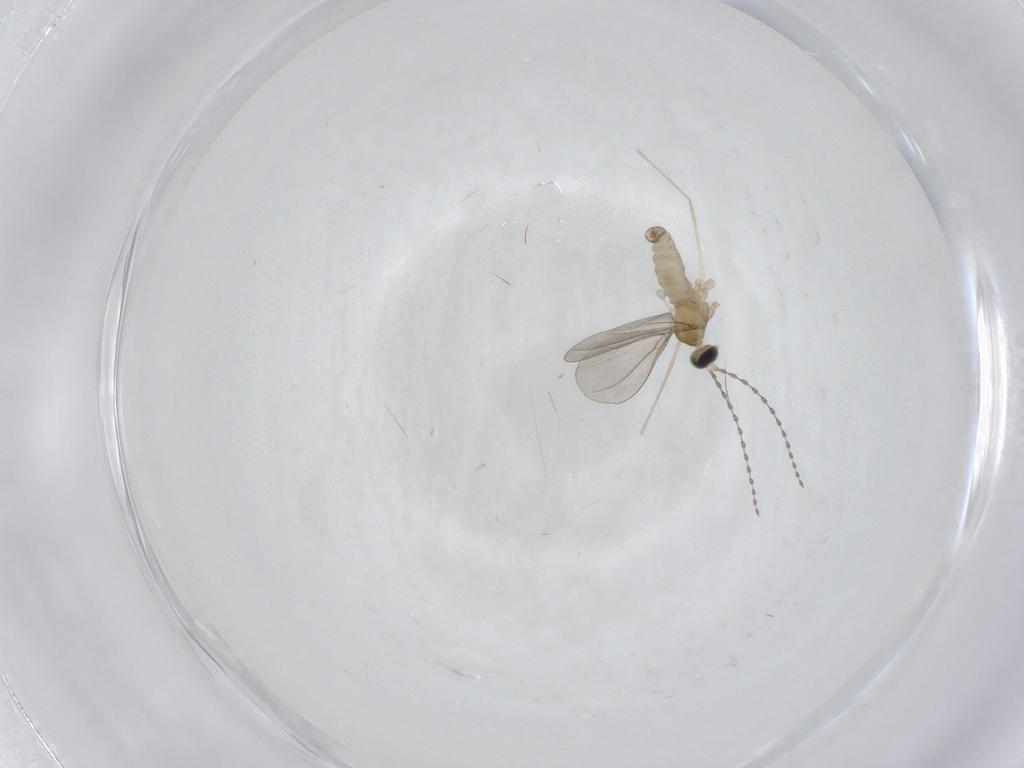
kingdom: Animalia
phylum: Arthropoda
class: Insecta
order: Diptera
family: Cecidomyiidae
